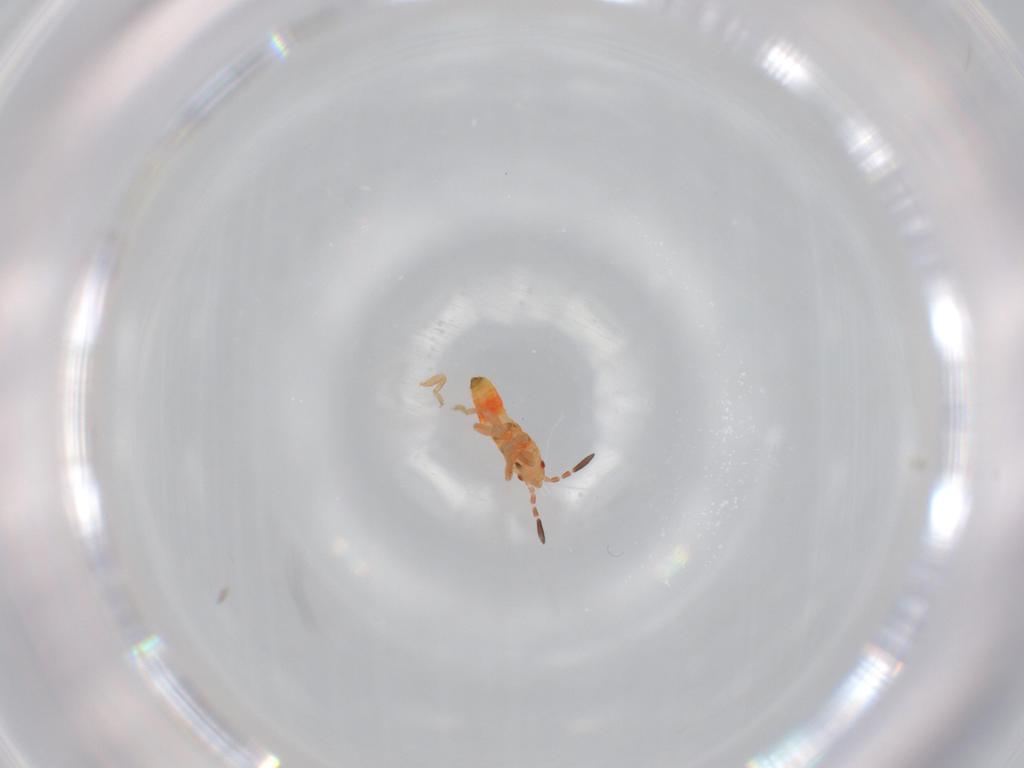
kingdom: Animalia
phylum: Arthropoda
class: Insecta
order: Hemiptera
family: Blissidae
